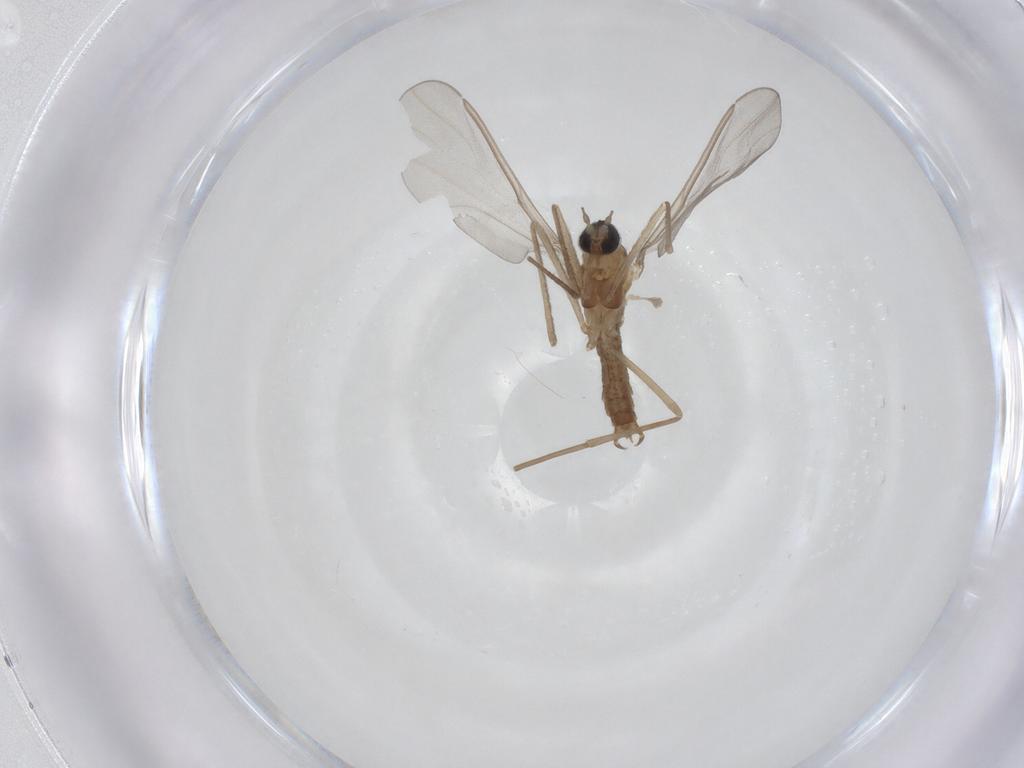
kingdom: Animalia
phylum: Arthropoda
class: Insecta
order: Diptera
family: Cecidomyiidae
